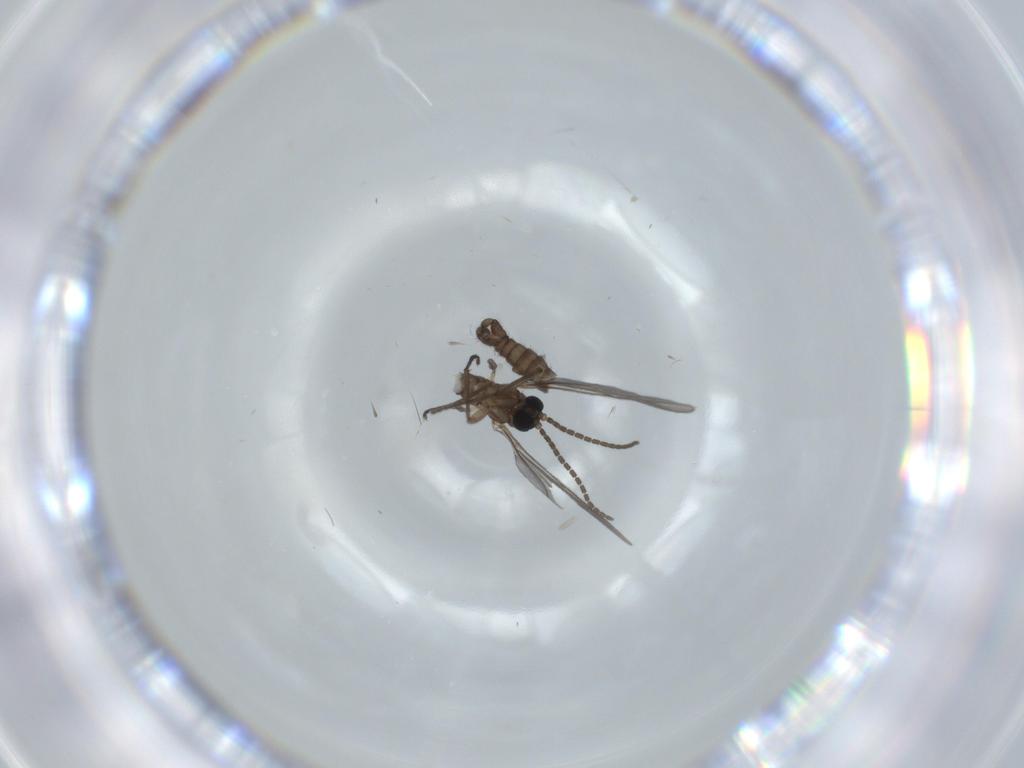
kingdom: Animalia
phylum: Arthropoda
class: Insecta
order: Diptera
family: Sciaridae
